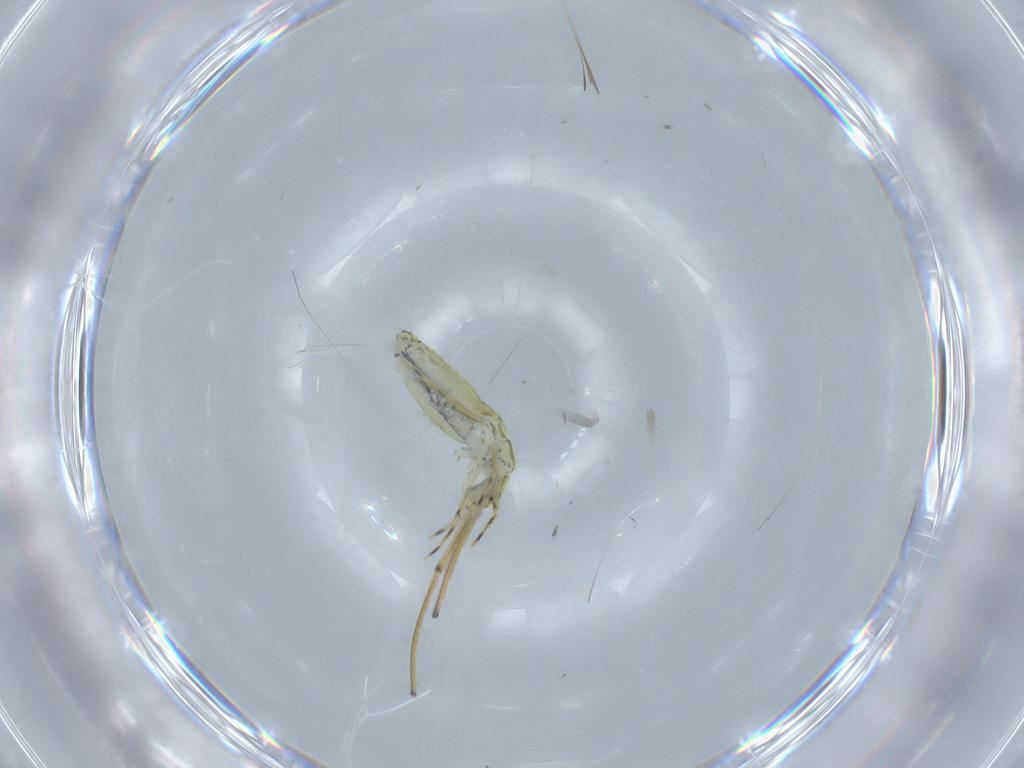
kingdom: Animalia
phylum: Arthropoda
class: Collembola
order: Entomobryomorpha
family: Paronellidae
